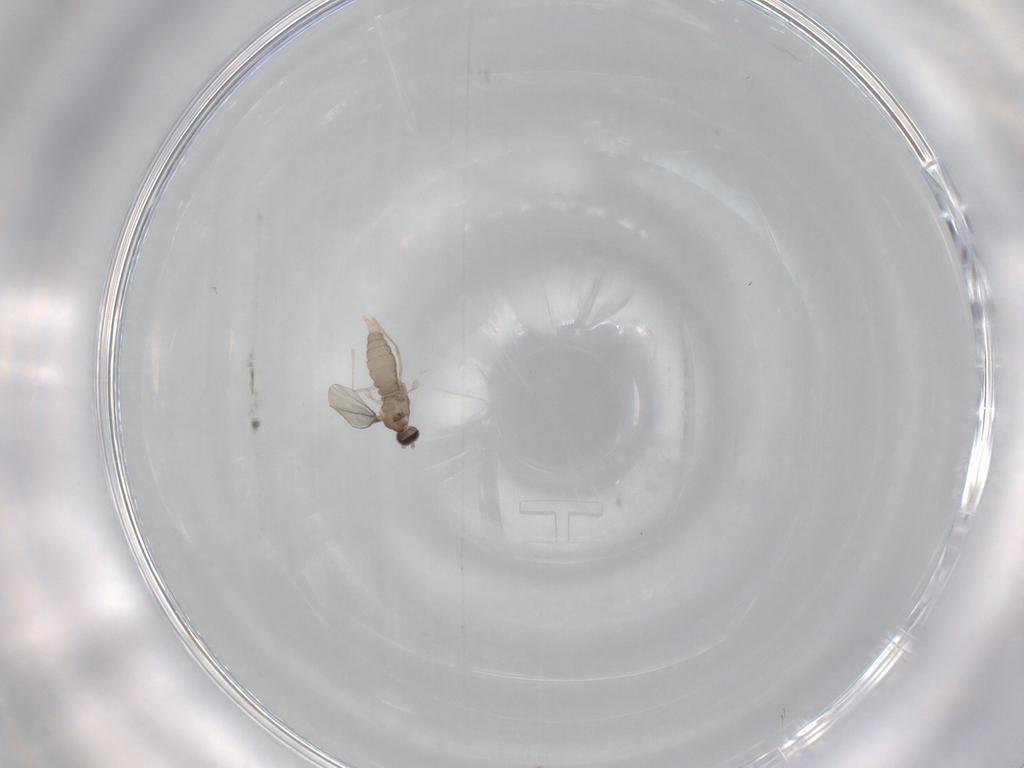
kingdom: Animalia
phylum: Arthropoda
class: Insecta
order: Diptera
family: Cecidomyiidae
